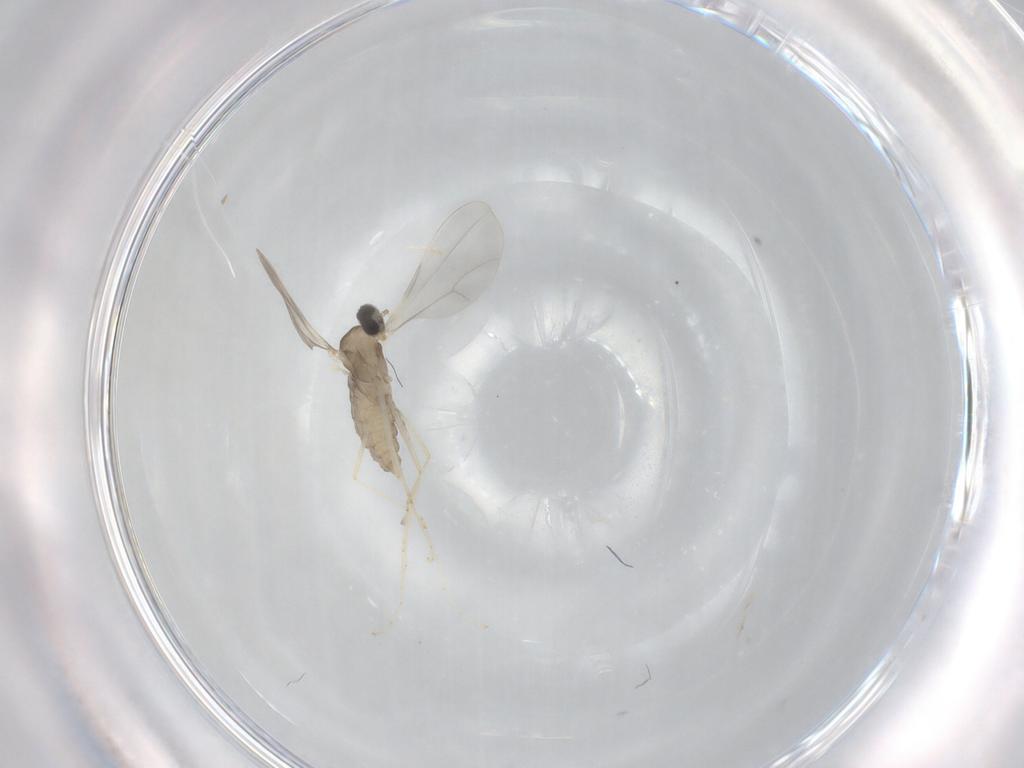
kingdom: Animalia
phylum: Arthropoda
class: Insecta
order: Diptera
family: Cecidomyiidae
